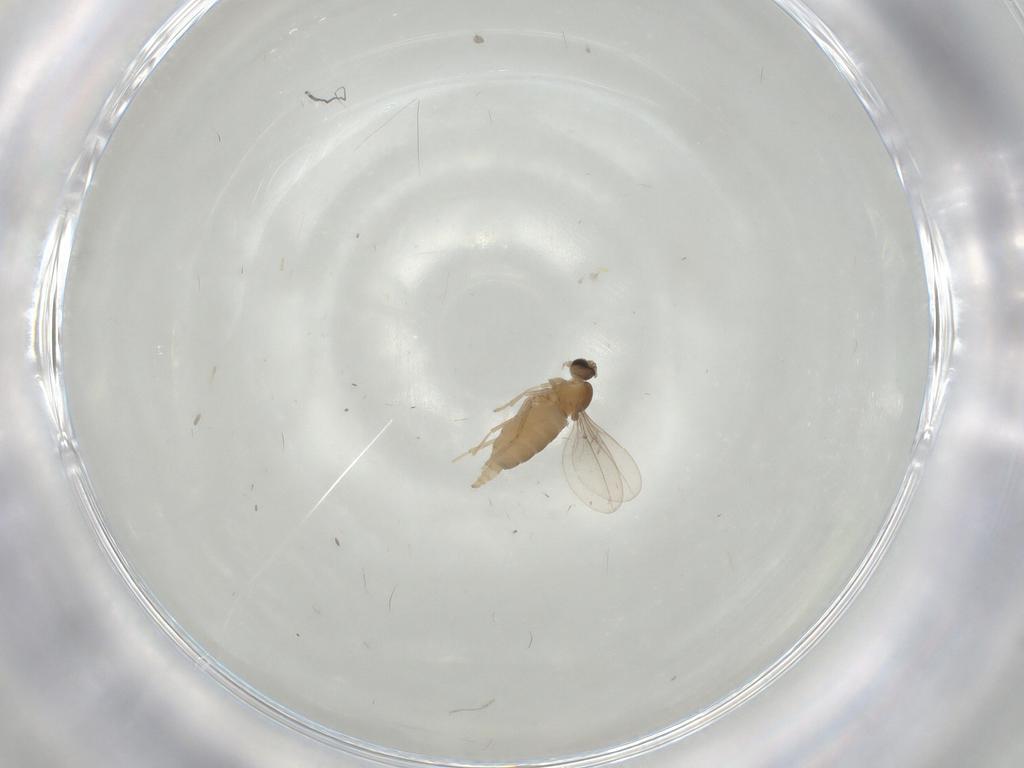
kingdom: Animalia
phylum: Arthropoda
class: Insecta
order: Diptera
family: Cecidomyiidae
